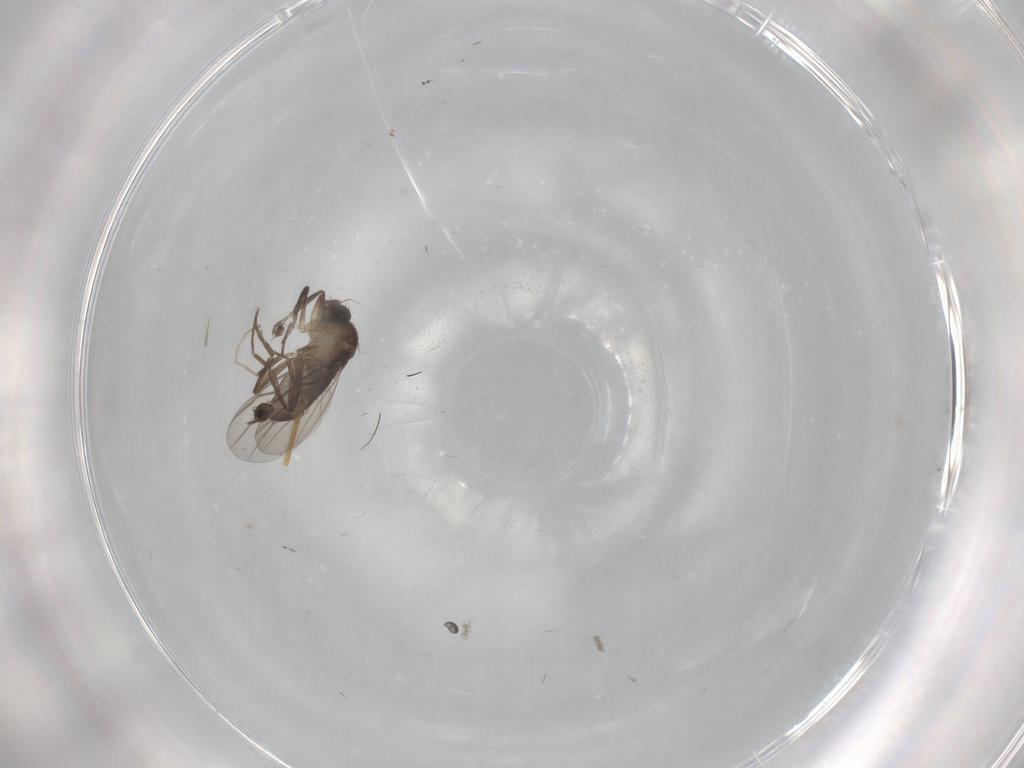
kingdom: Animalia
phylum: Arthropoda
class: Insecta
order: Diptera
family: Phoridae
